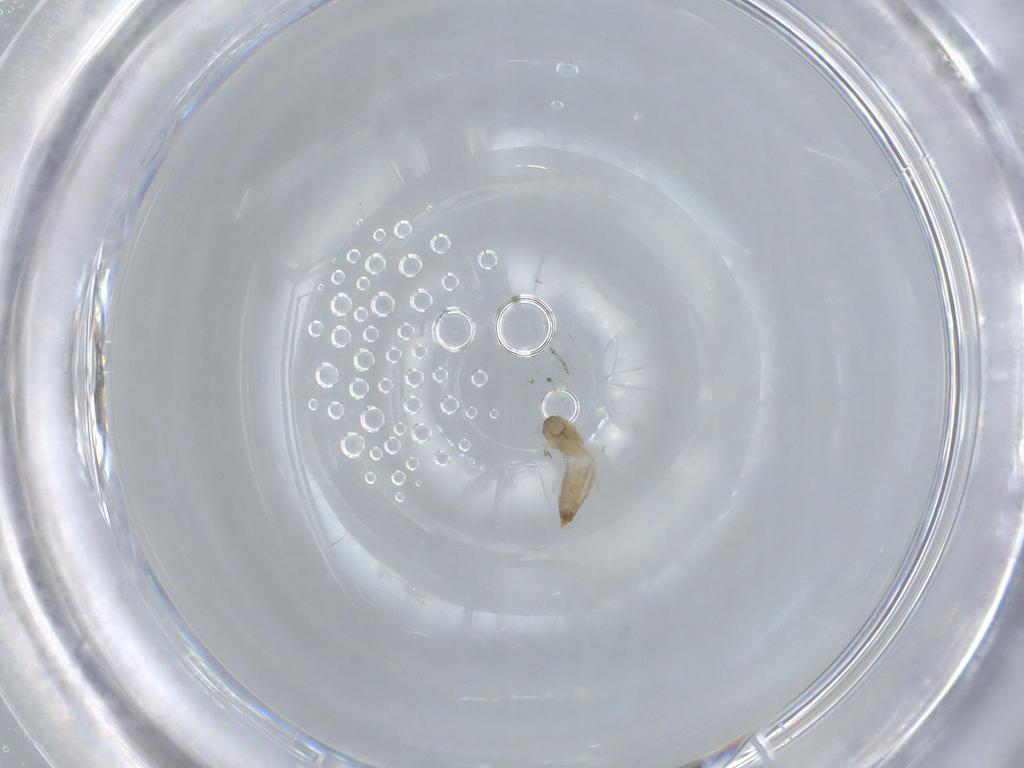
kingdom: Animalia
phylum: Arthropoda
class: Insecta
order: Diptera
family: Cecidomyiidae
